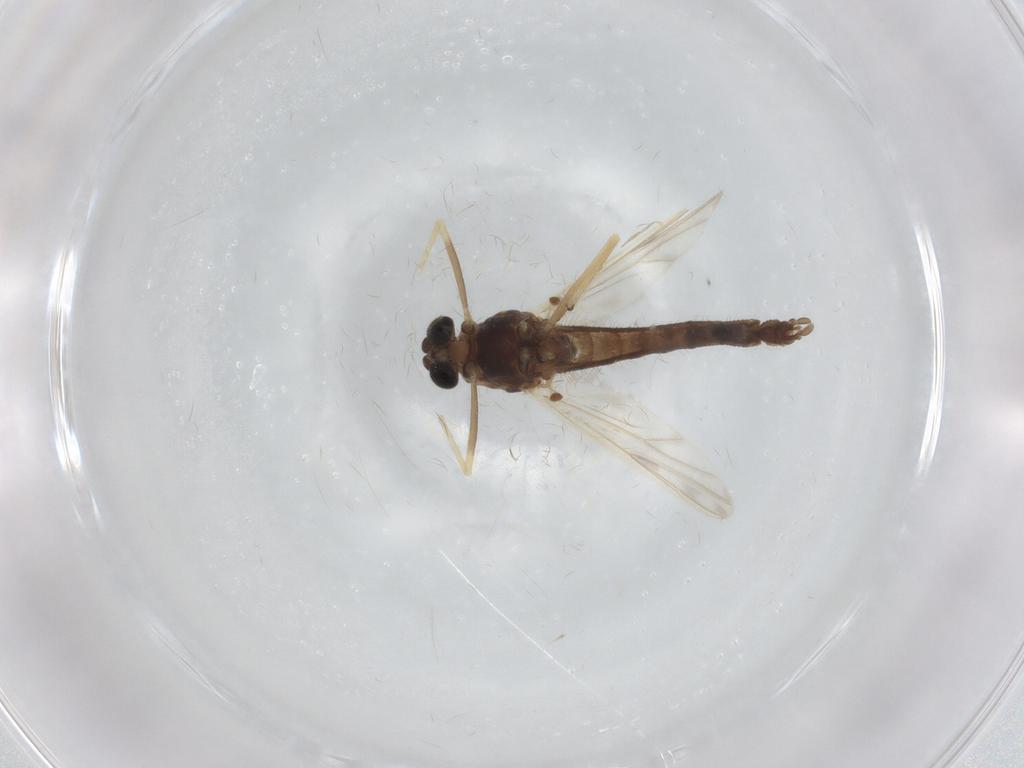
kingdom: Animalia
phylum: Arthropoda
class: Insecta
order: Diptera
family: Chironomidae
